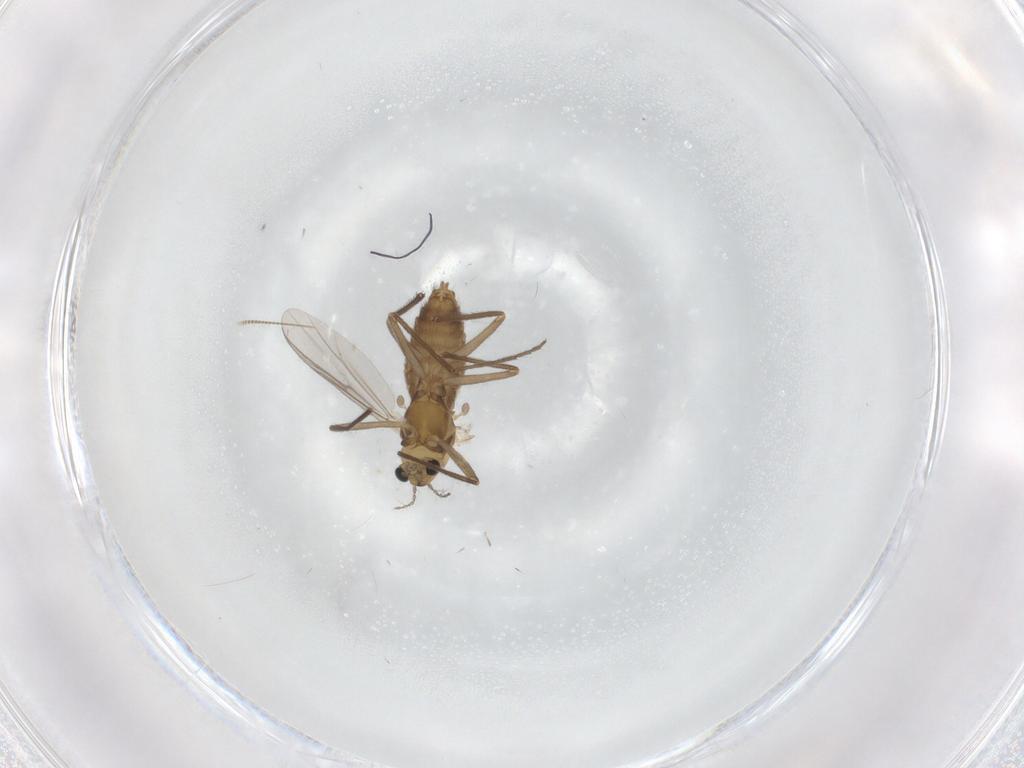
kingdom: Animalia
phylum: Arthropoda
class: Insecta
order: Diptera
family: Chironomidae
